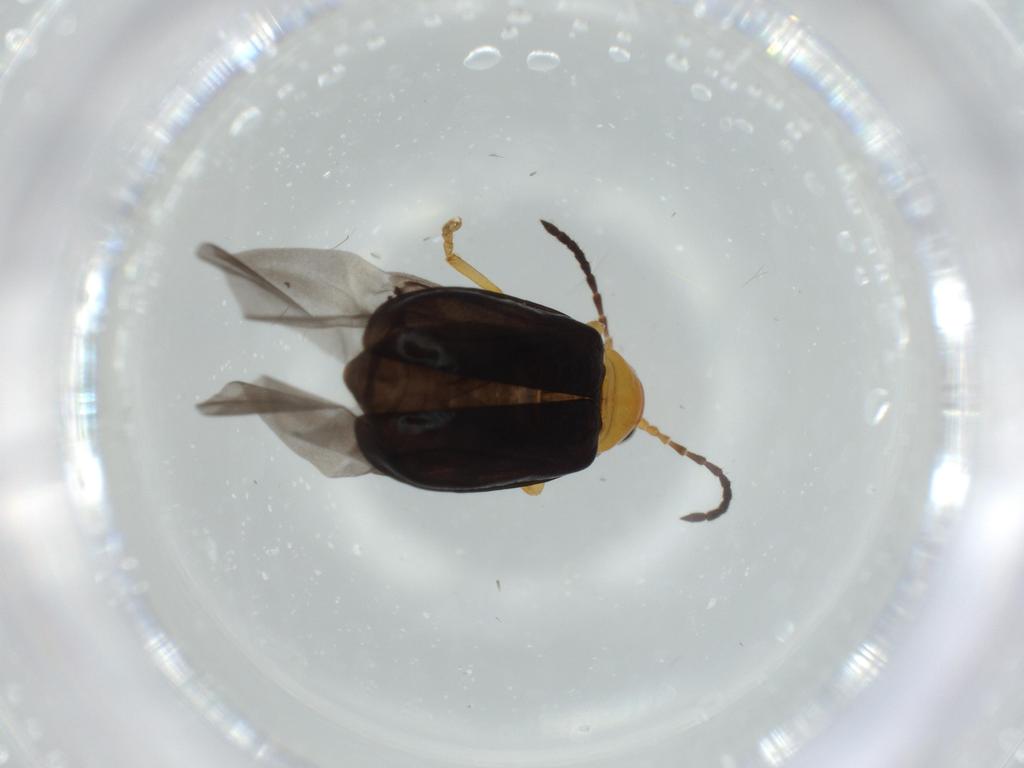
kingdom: Animalia
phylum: Arthropoda
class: Insecta
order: Coleoptera
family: Chrysomelidae
